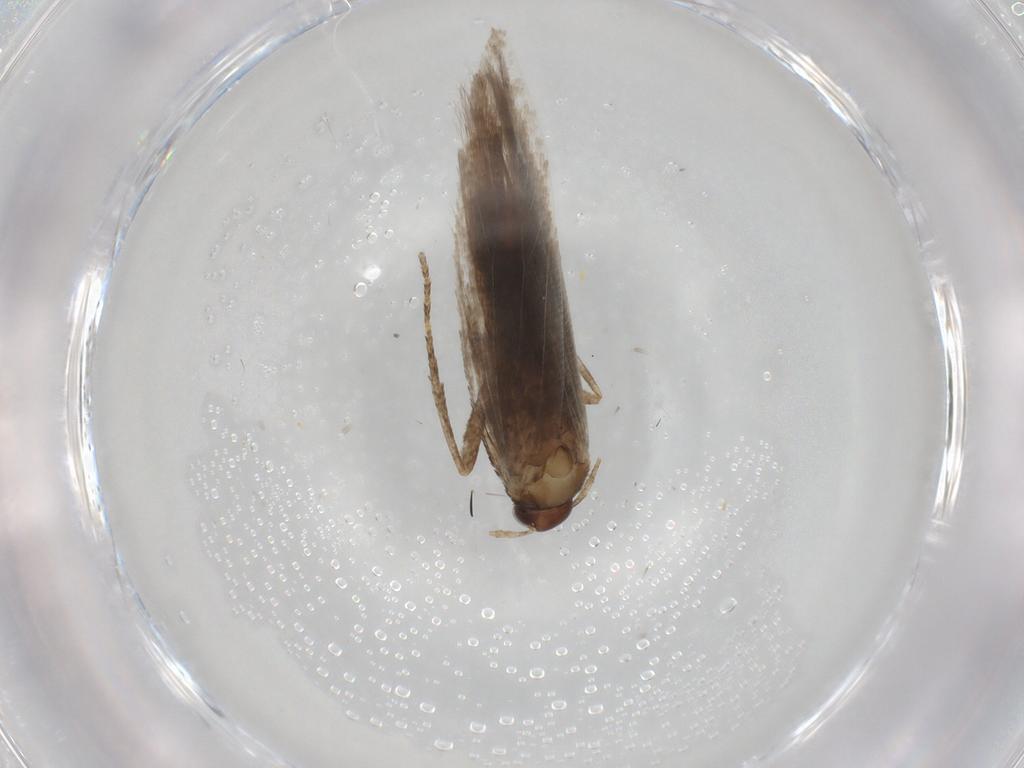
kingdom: Animalia
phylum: Arthropoda
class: Insecta
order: Lepidoptera
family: Gelechiidae
